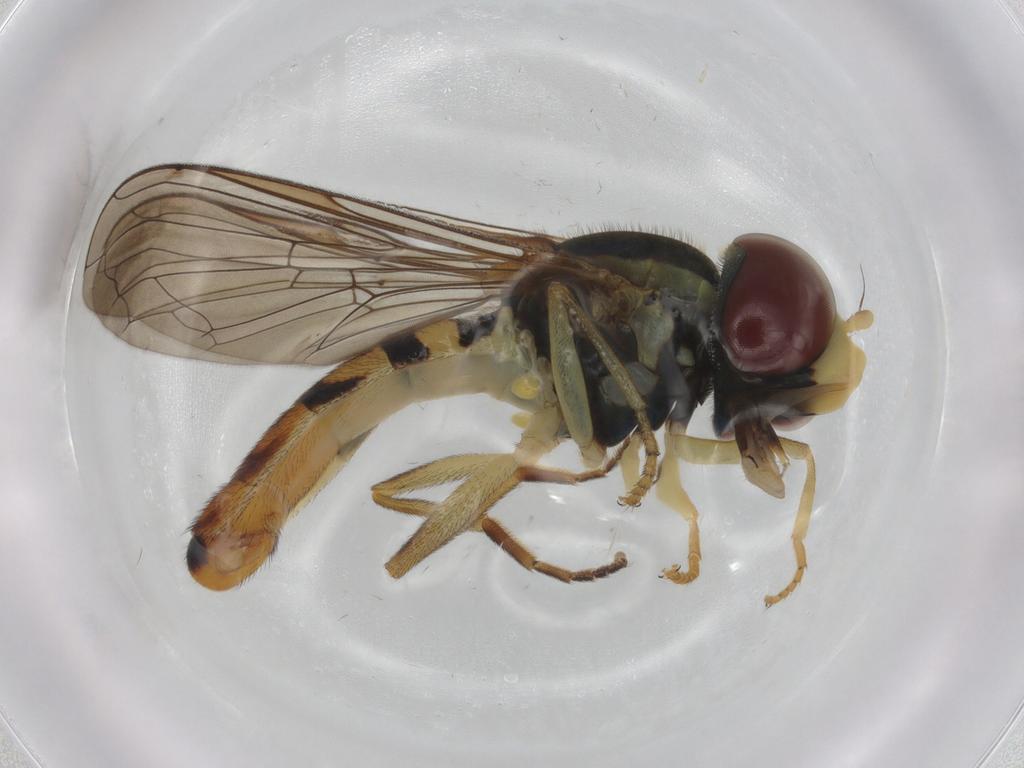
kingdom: Animalia
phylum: Arthropoda
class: Insecta
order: Diptera
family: Syrphidae
